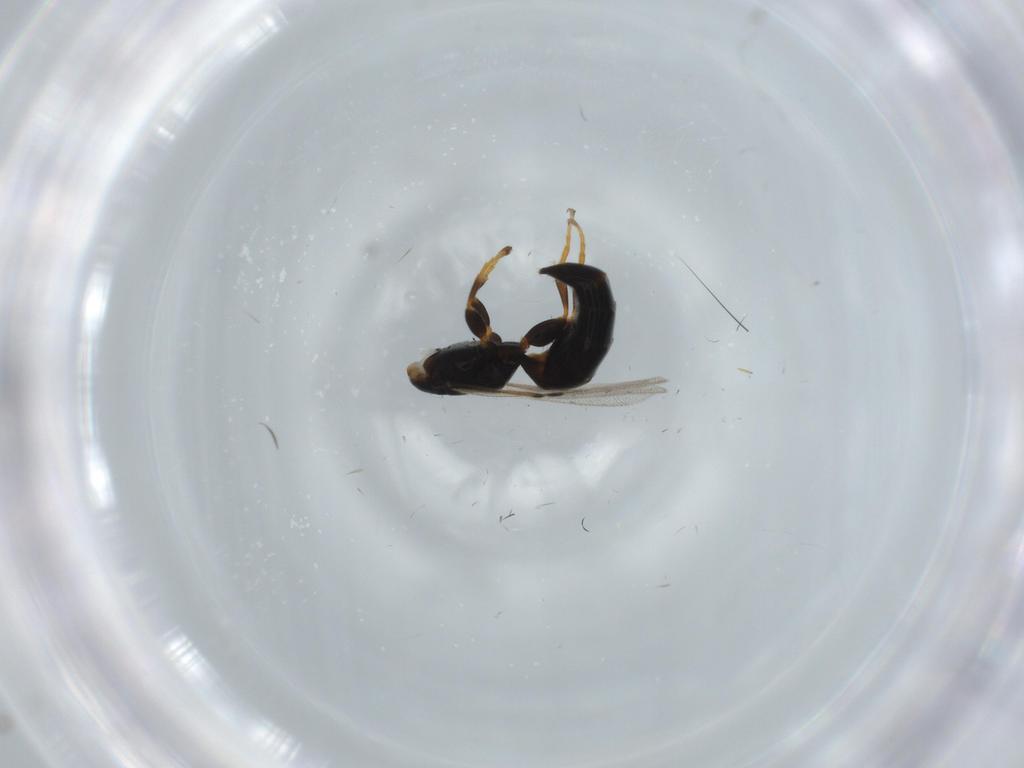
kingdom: Animalia
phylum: Arthropoda
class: Insecta
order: Hymenoptera
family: Bethylidae
